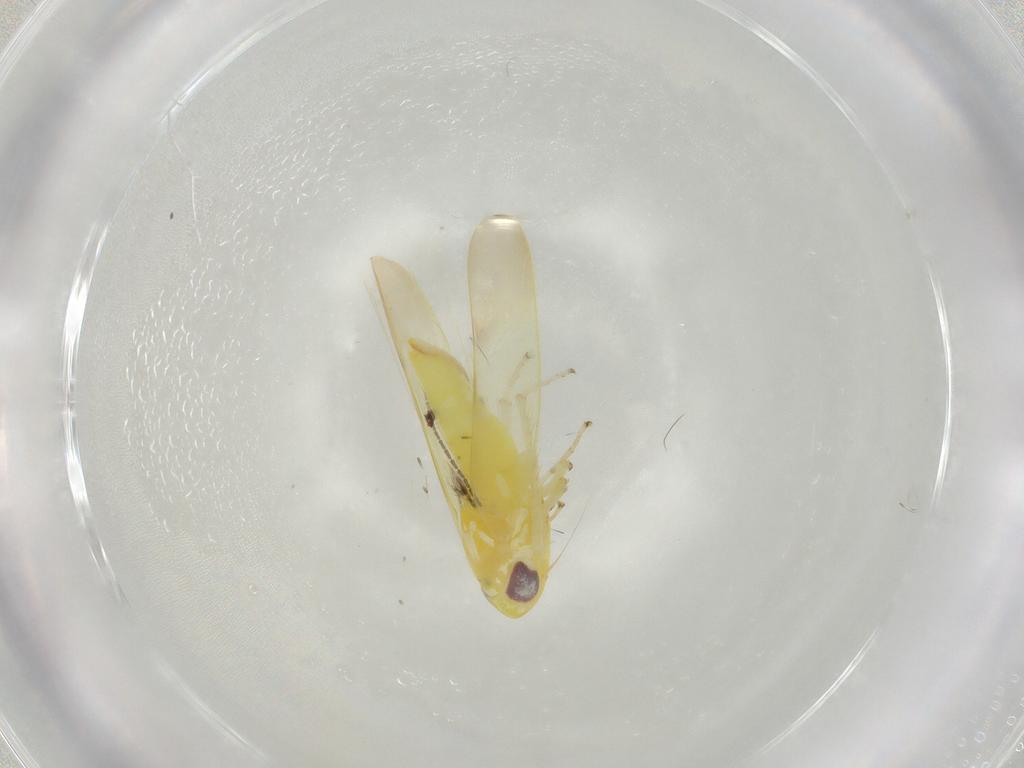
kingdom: Animalia
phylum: Arthropoda
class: Insecta
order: Hemiptera
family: Cicadellidae
